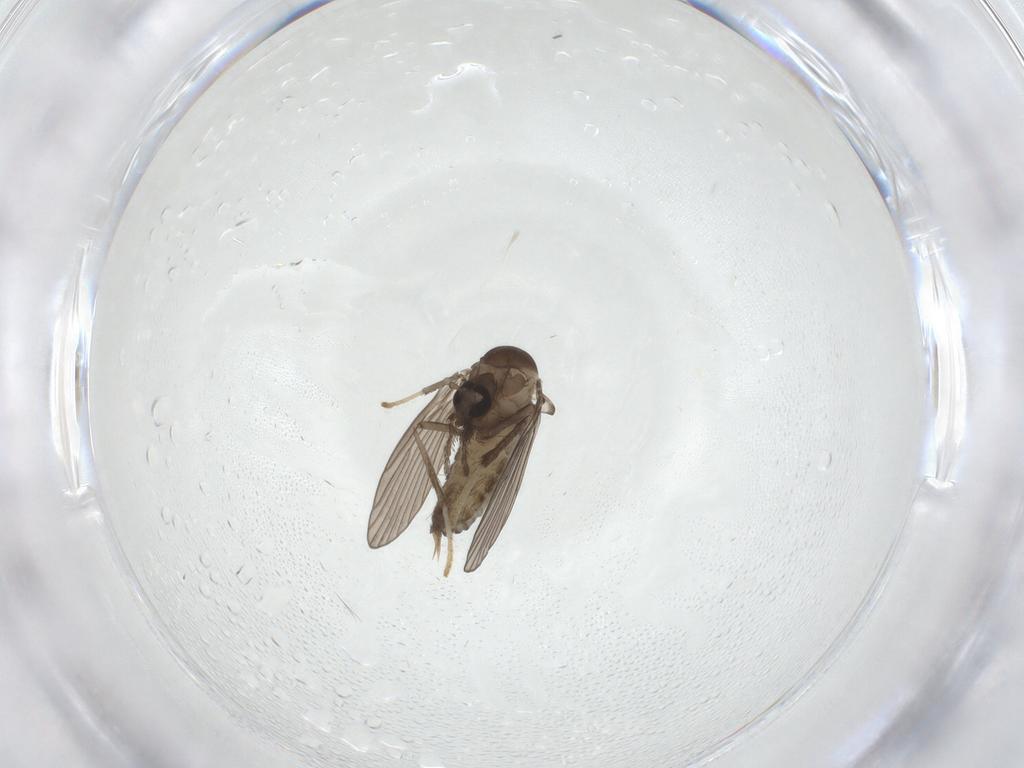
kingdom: Animalia
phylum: Arthropoda
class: Insecta
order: Diptera
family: Psychodidae
